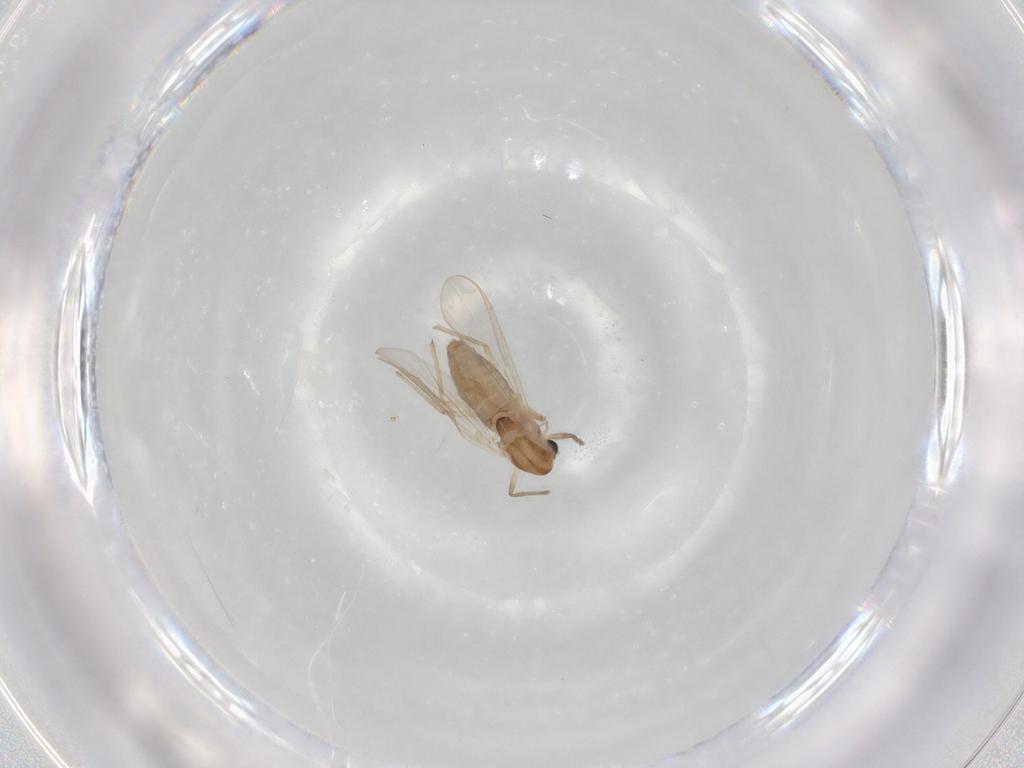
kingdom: Animalia
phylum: Arthropoda
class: Insecta
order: Diptera
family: Chironomidae
